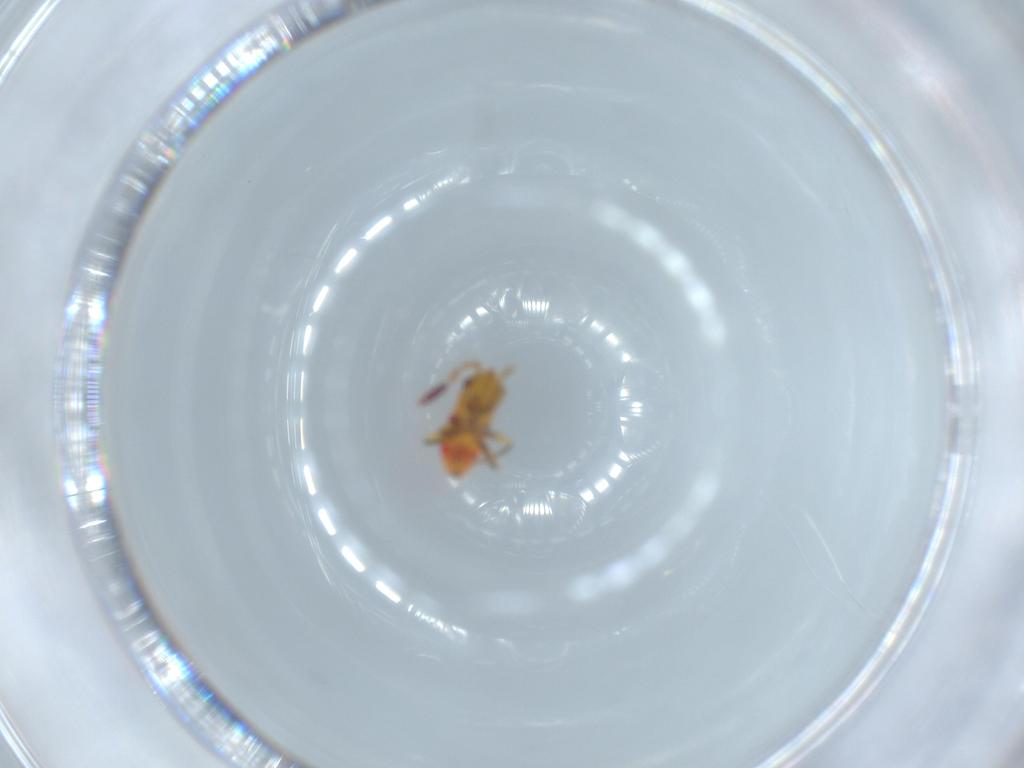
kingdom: Animalia
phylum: Arthropoda
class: Insecta
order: Hemiptera
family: Rhyparochromidae
